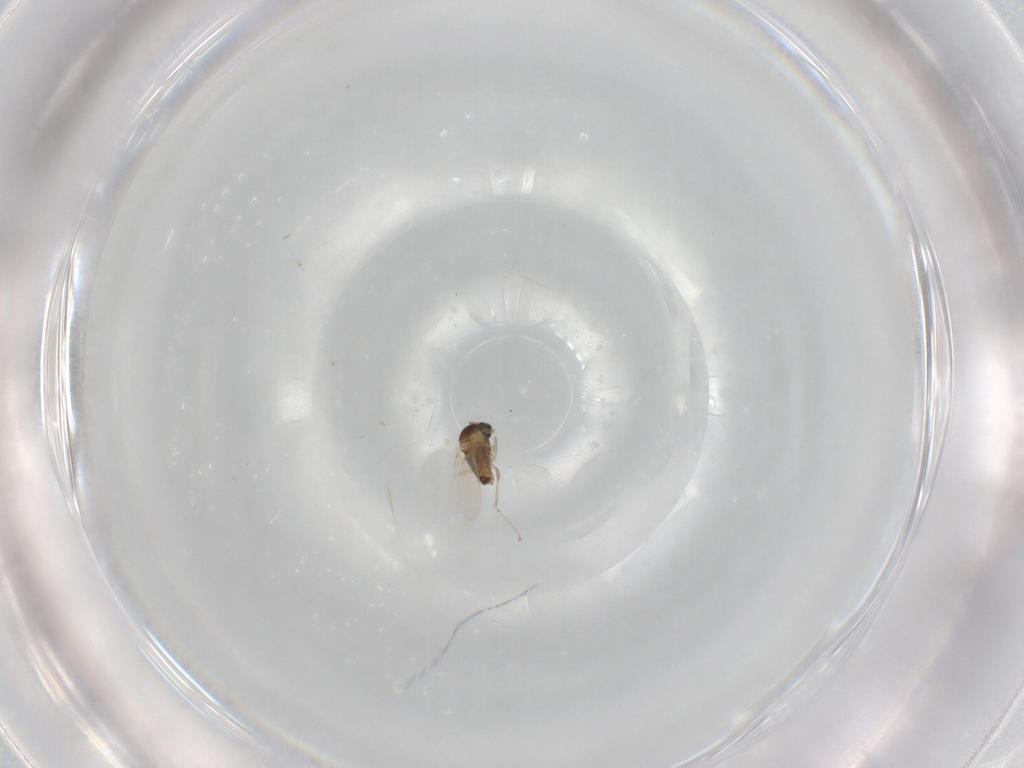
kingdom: Animalia
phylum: Arthropoda
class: Insecta
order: Diptera
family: Cecidomyiidae
